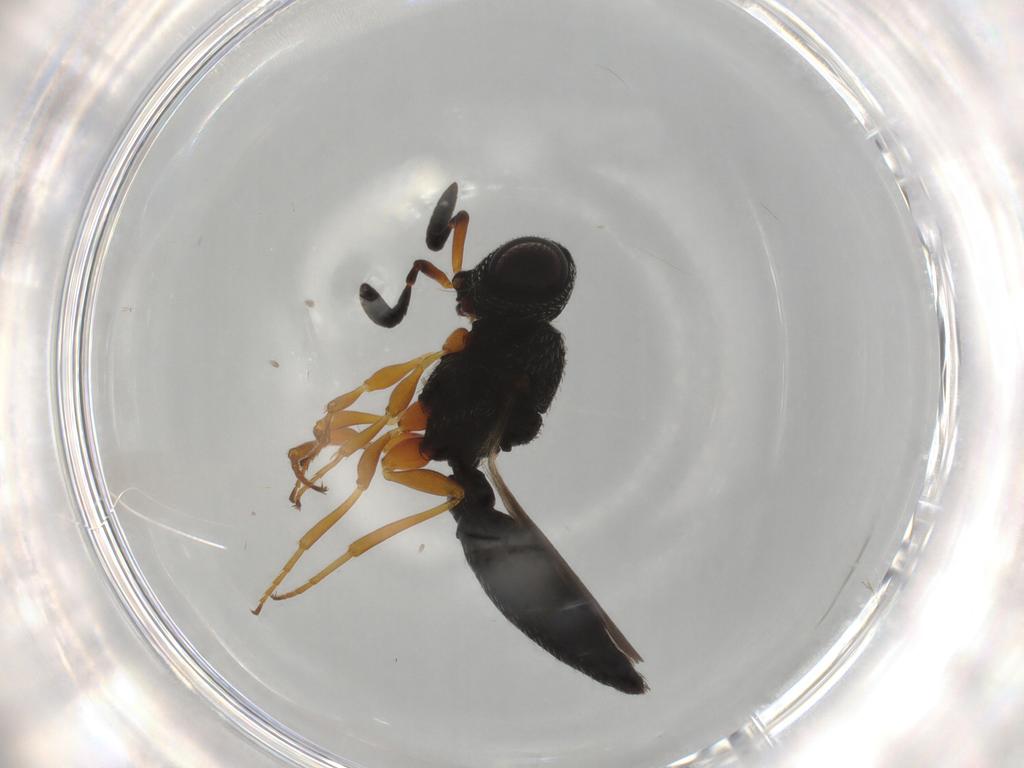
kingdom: Animalia
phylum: Arthropoda
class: Insecta
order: Hymenoptera
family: Scelionidae
